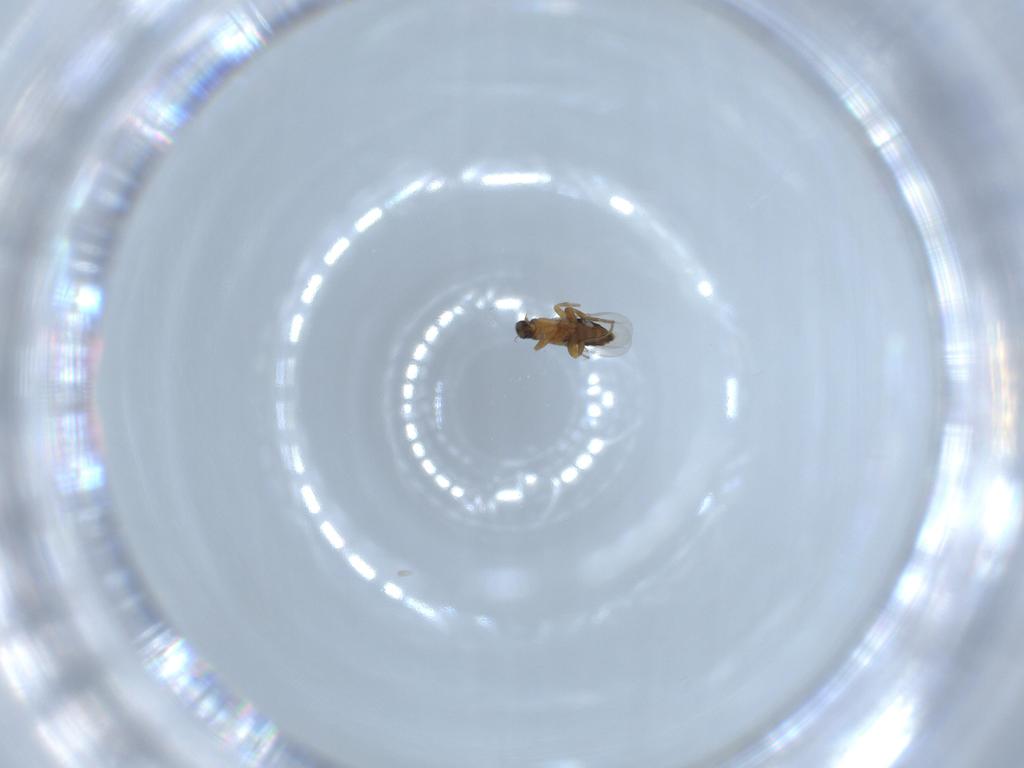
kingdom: Animalia
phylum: Arthropoda
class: Insecta
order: Diptera
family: Phoridae
